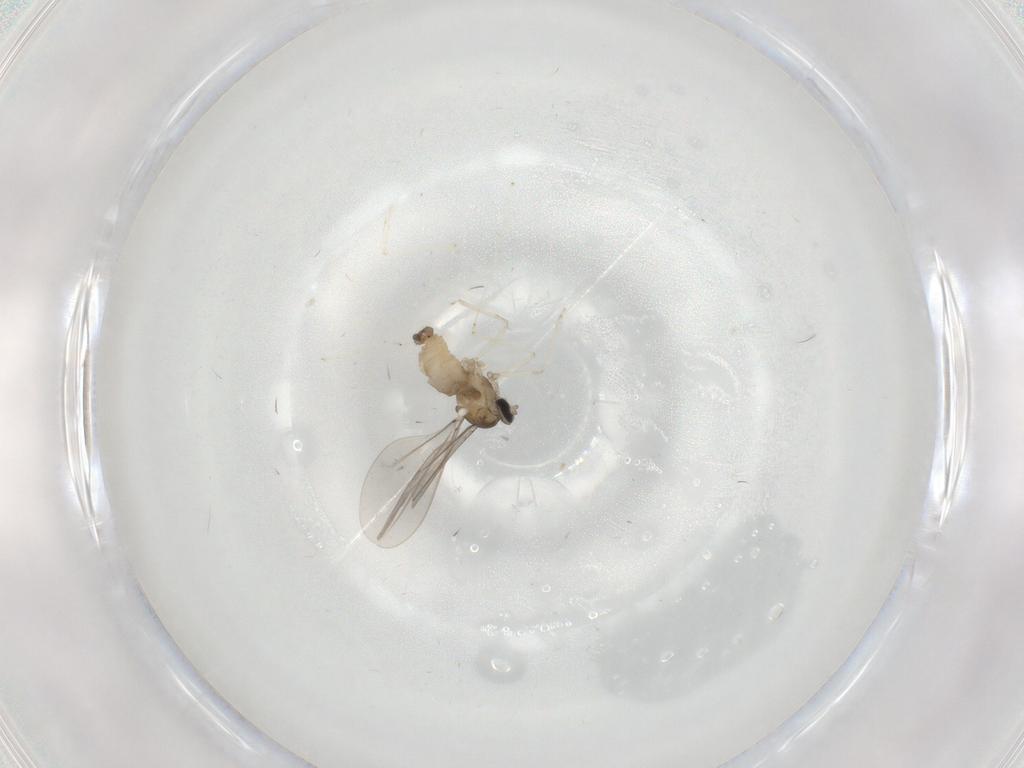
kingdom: Animalia
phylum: Arthropoda
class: Insecta
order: Diptera
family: Cecidomyiidae
